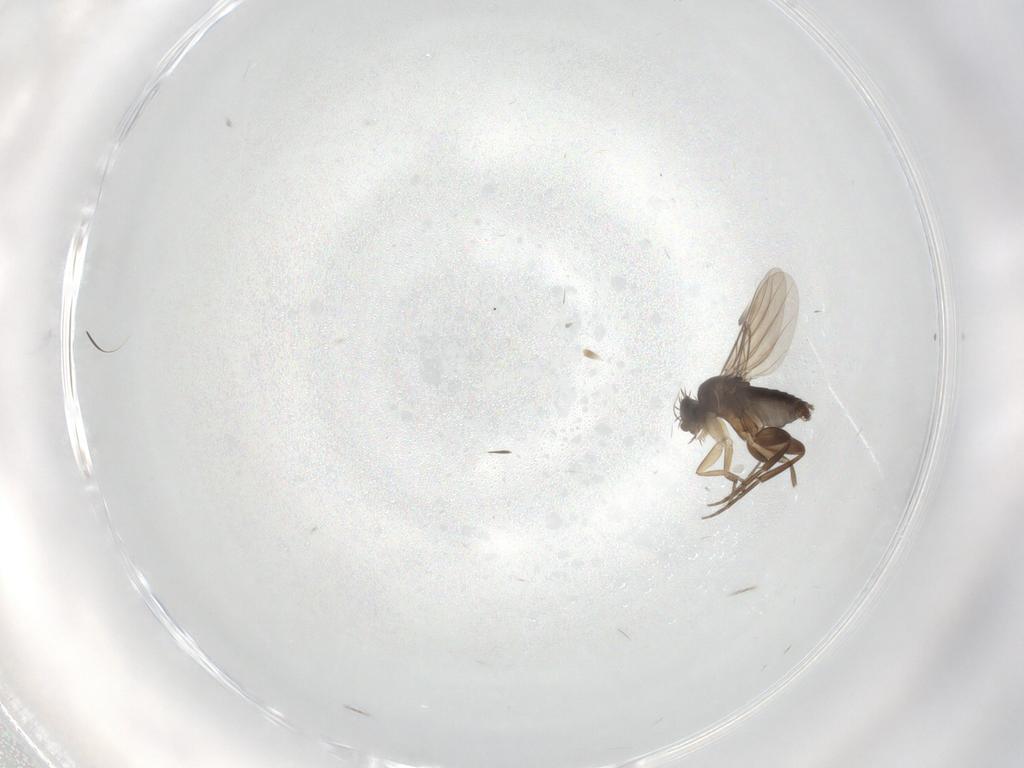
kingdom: Animalia
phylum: Arthropoda
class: Insecta
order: Diptera
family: Phoridae
